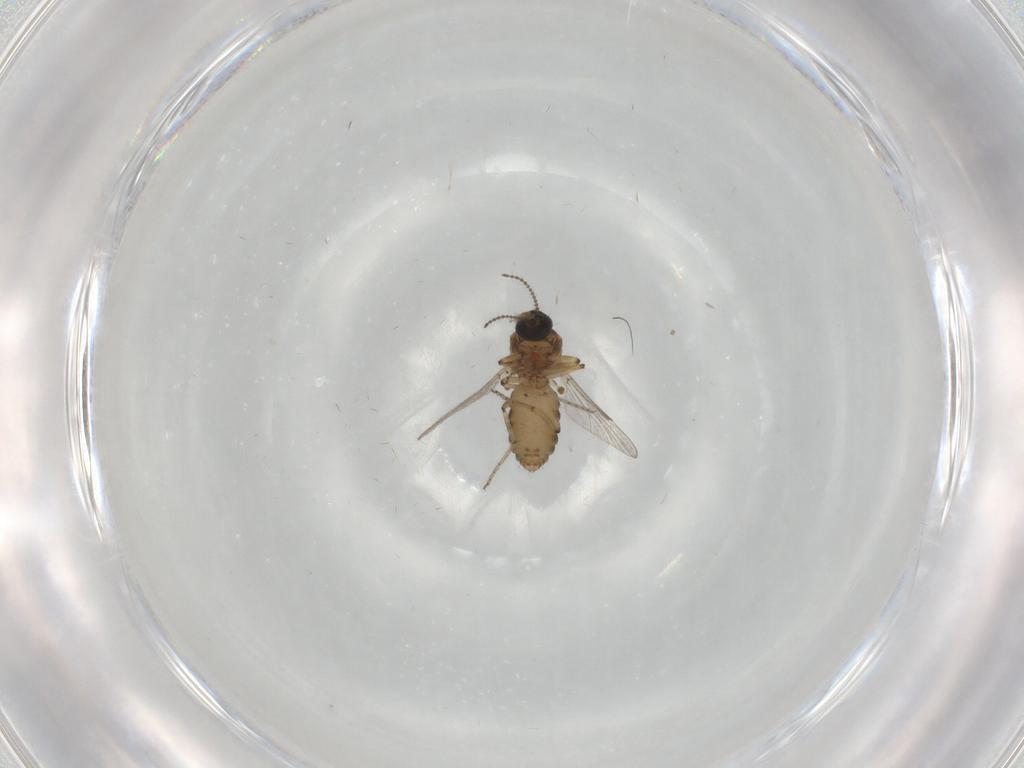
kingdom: Animalia
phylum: Arthropoda
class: Insecta
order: Diptera
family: Ceratopogonidae
